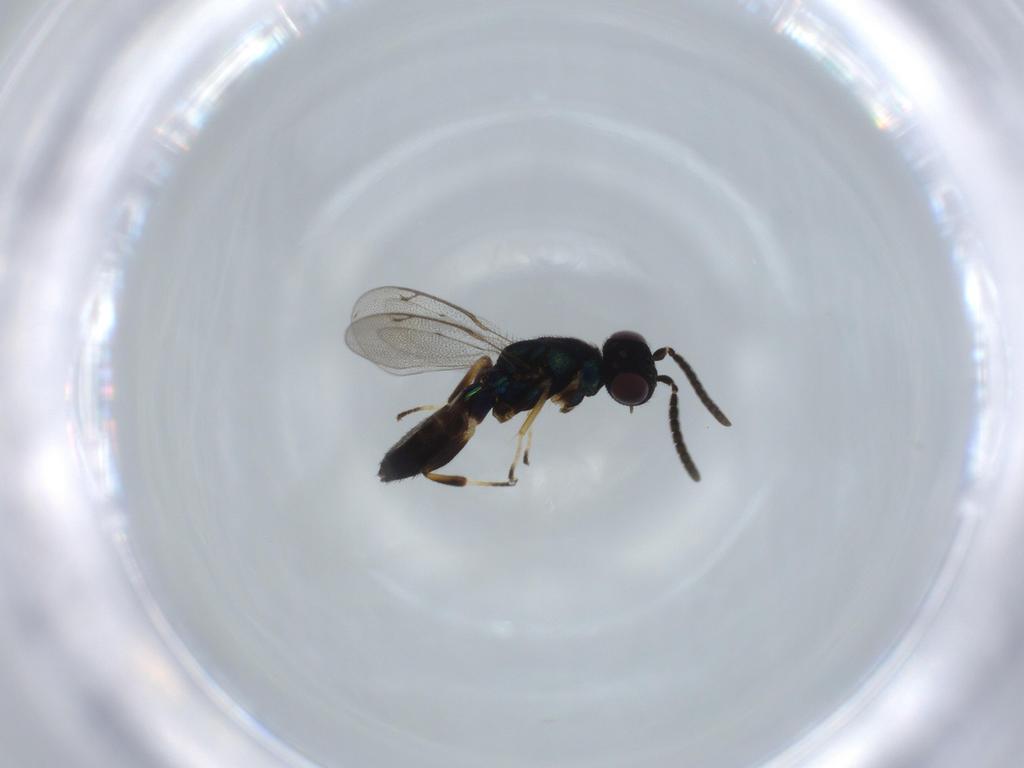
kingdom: Animalia
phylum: Arthropoda
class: Insecta
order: Hymenoptera
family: Eupelmidae
